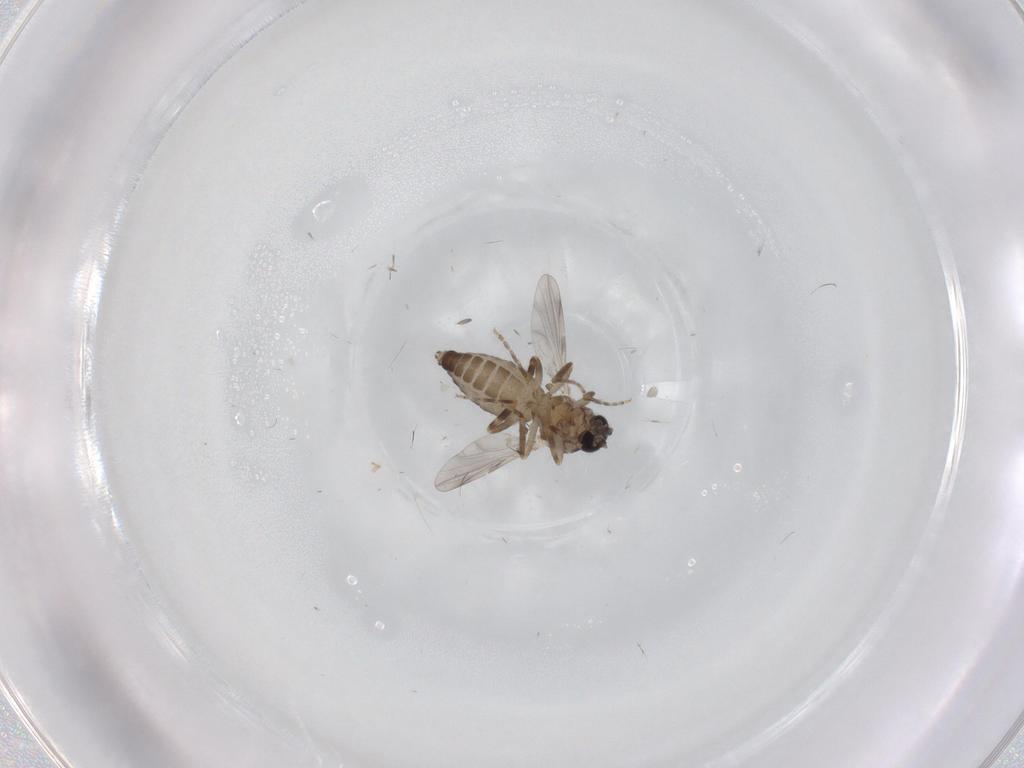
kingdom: Animalia
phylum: Arthropoda
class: Insecta
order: Diptera
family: Ceratopogonidae
